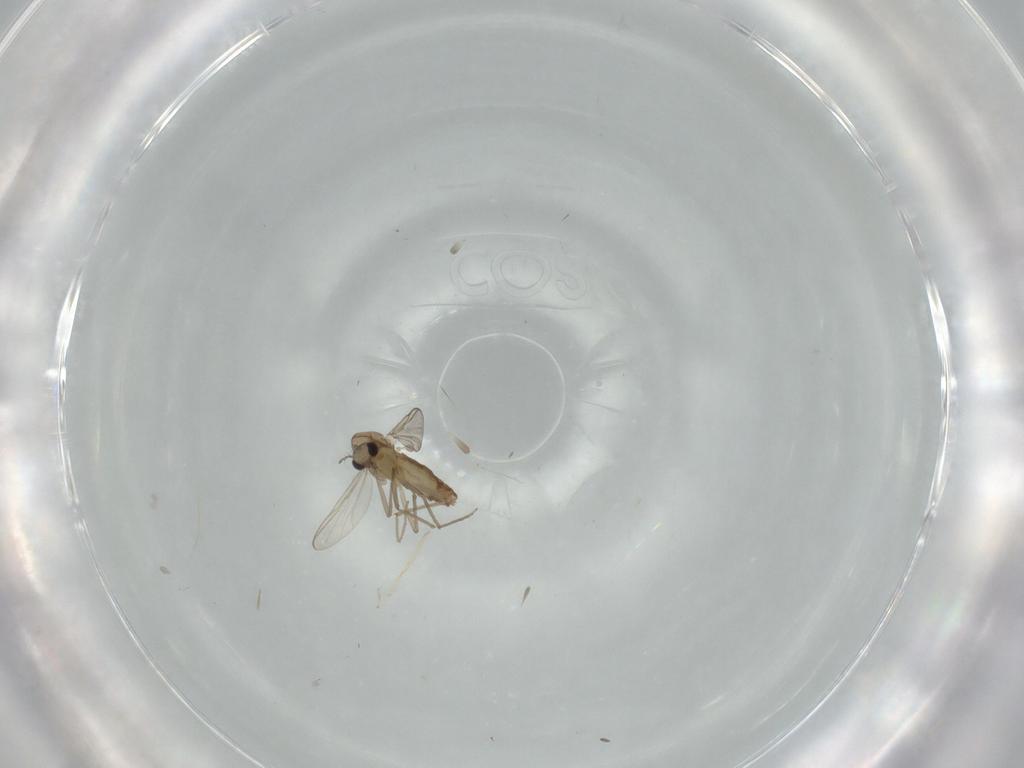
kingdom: Animalia
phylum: Arthropoda
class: Insecta
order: Diptera
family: Chironomidae
